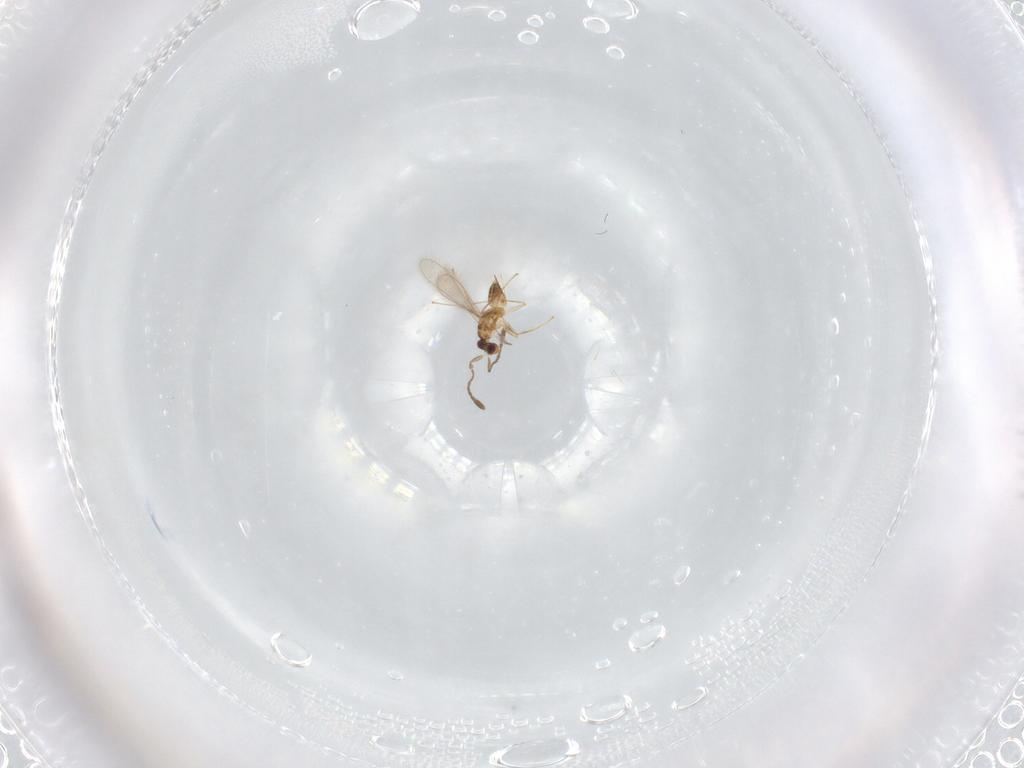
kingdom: Animalia
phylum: Arthropoda
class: Insecta
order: Hymenoptera
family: Mymaridae
